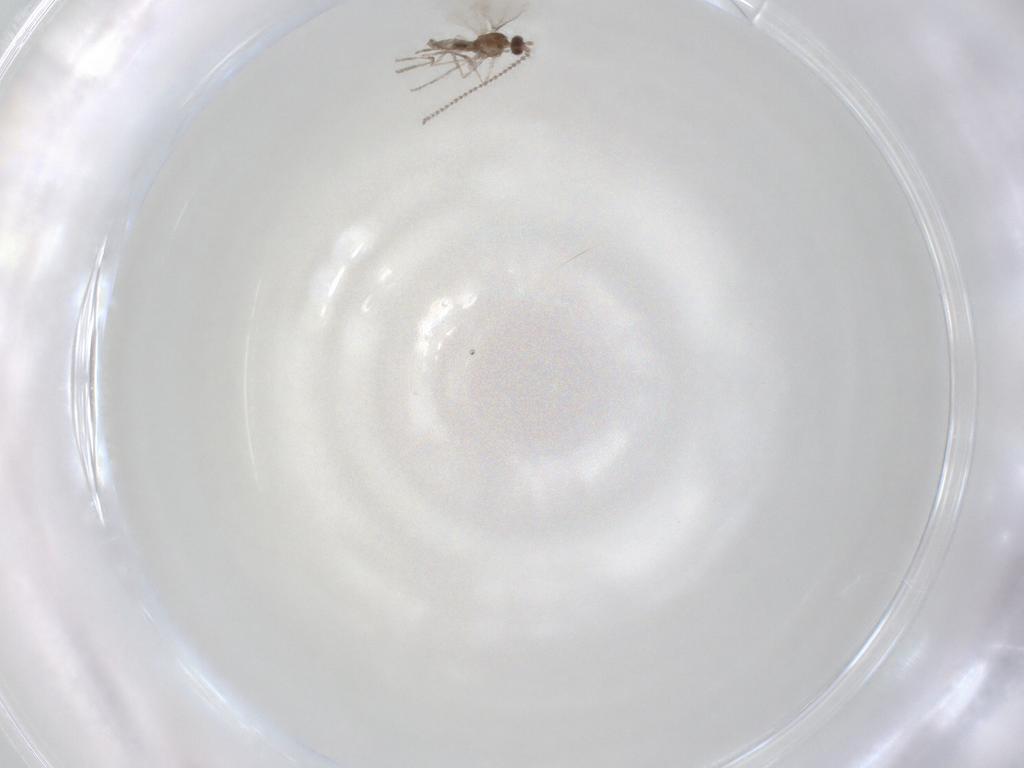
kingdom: Animalia
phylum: Arthropoda
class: Insecta
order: Diptera
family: Cecidomyiidae
